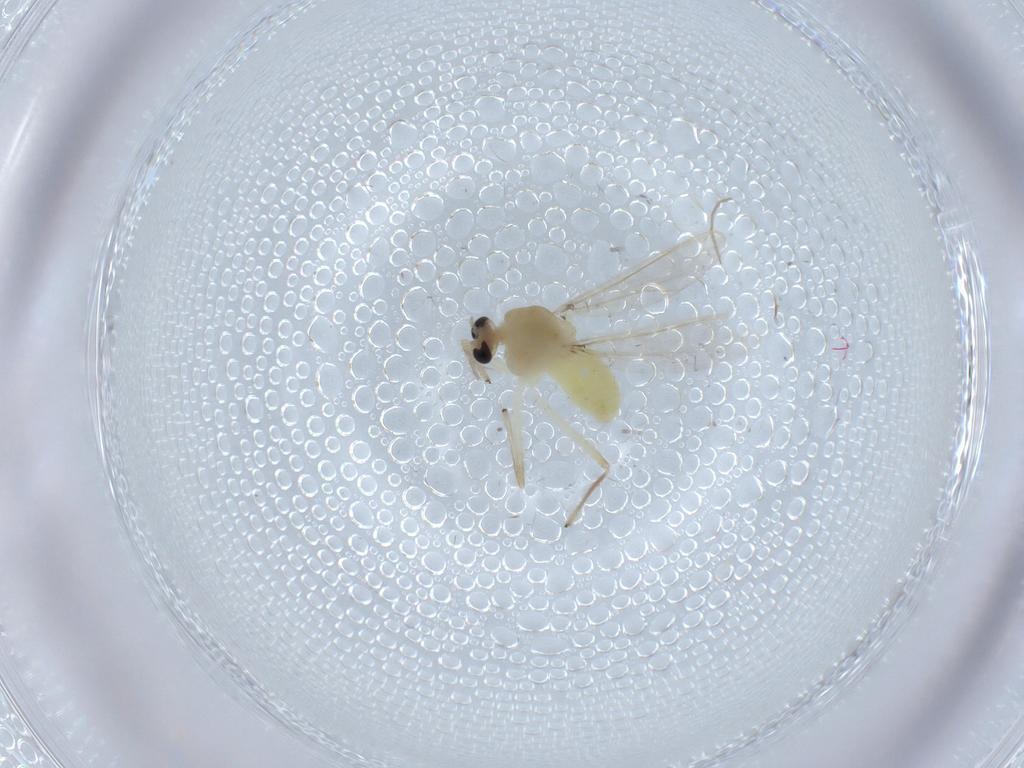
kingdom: Animalia
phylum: Arthropoda
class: Insecta
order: Diptera
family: Chironomidae
